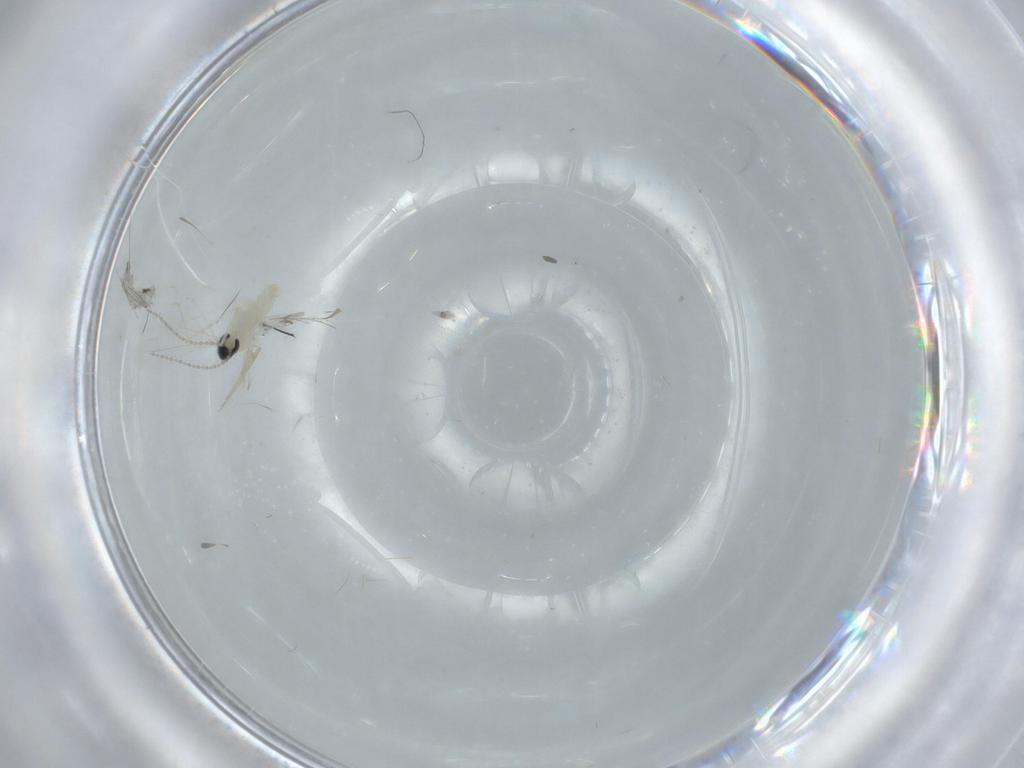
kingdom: Animalia
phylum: Arthropoda
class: Insecta
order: Diptera
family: Cecidomyiidae
